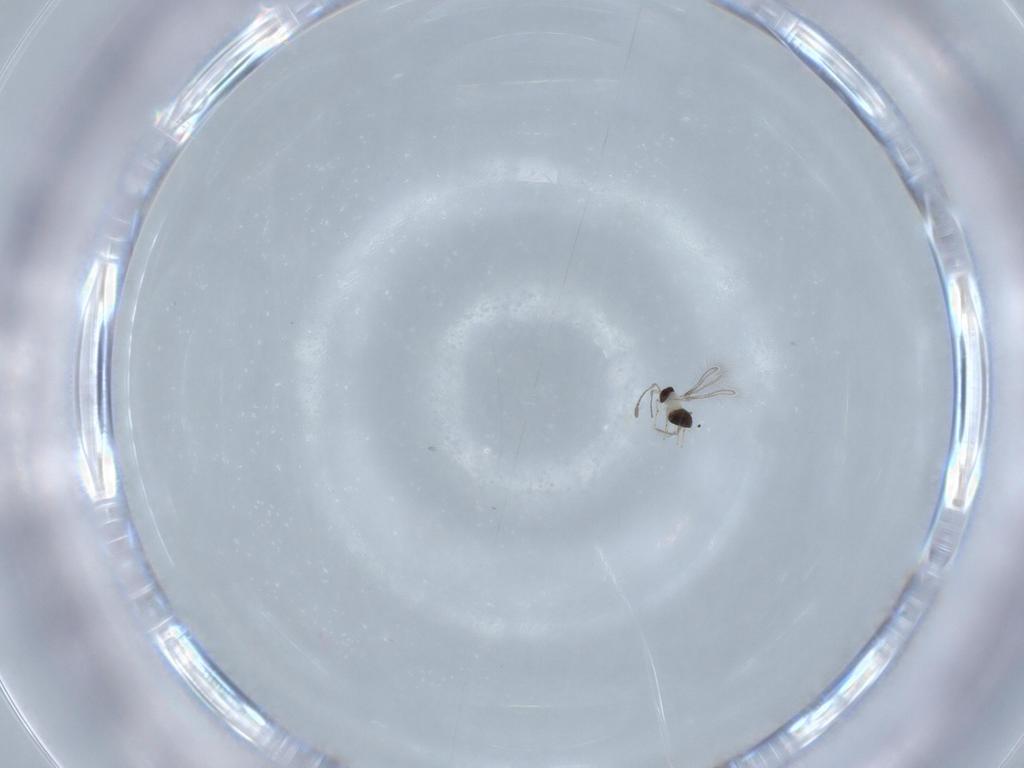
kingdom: Animalia
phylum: Arthropoda
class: Insecta
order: Hymenoptera
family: Mymaridae
